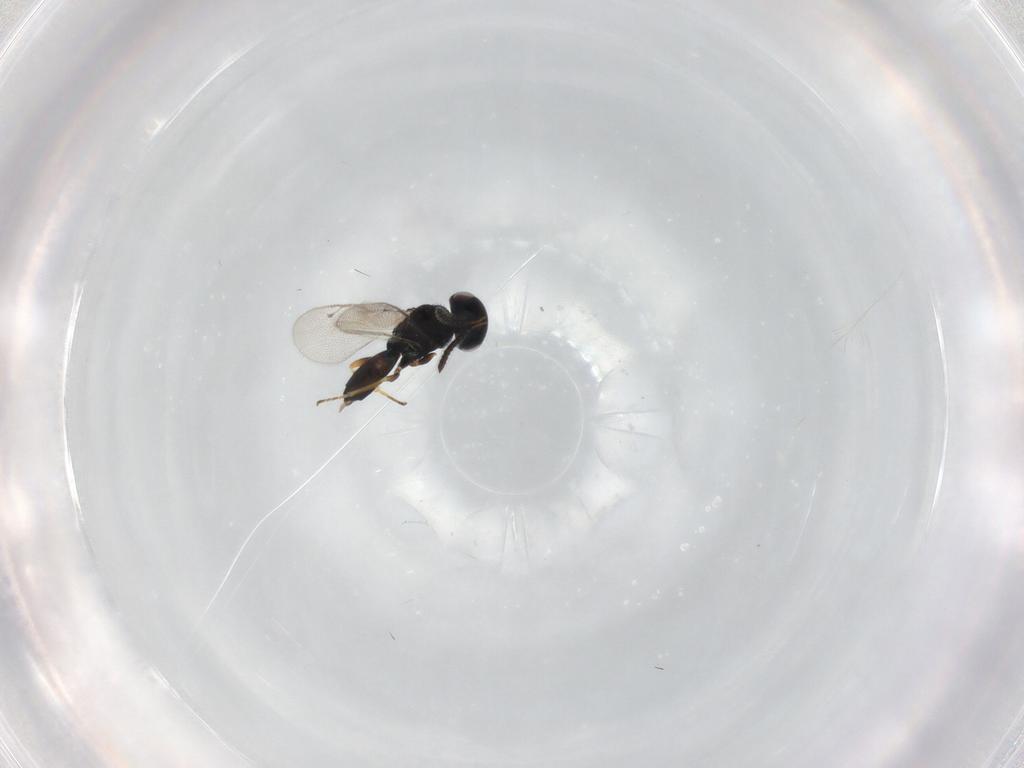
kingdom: Animalia
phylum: Arthropoda
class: Insecta
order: Hymenoptera
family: Pteromalidae
